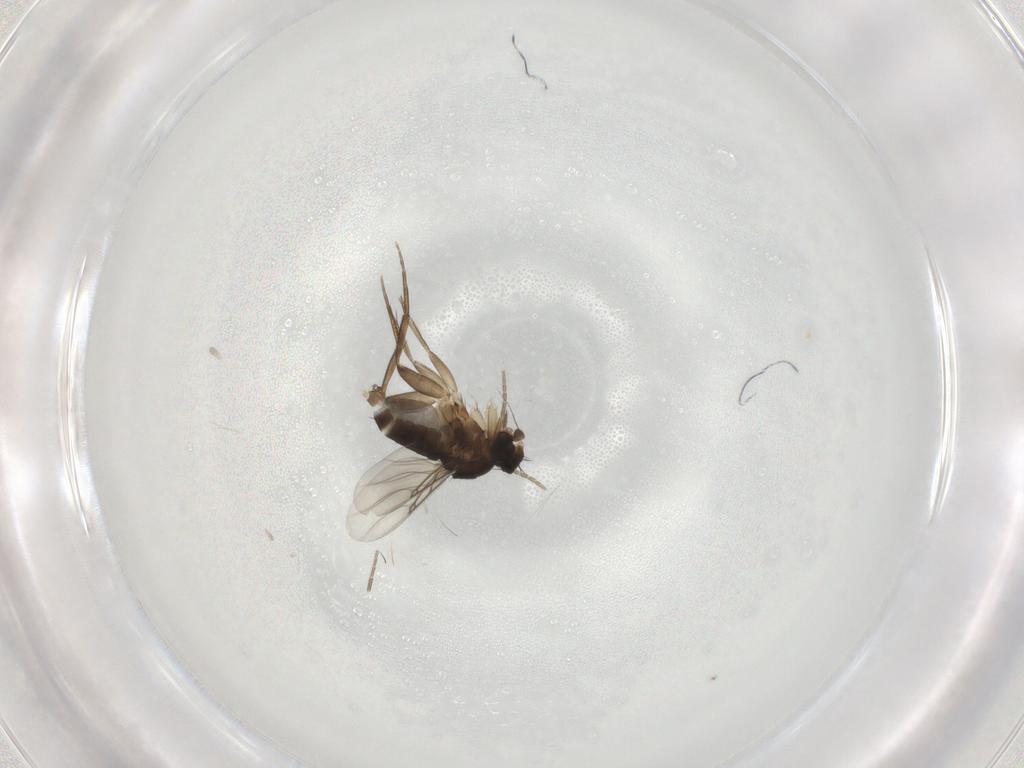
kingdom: Animalia
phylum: Arthropoda
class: Insecta
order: Diptera
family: Phoridae
